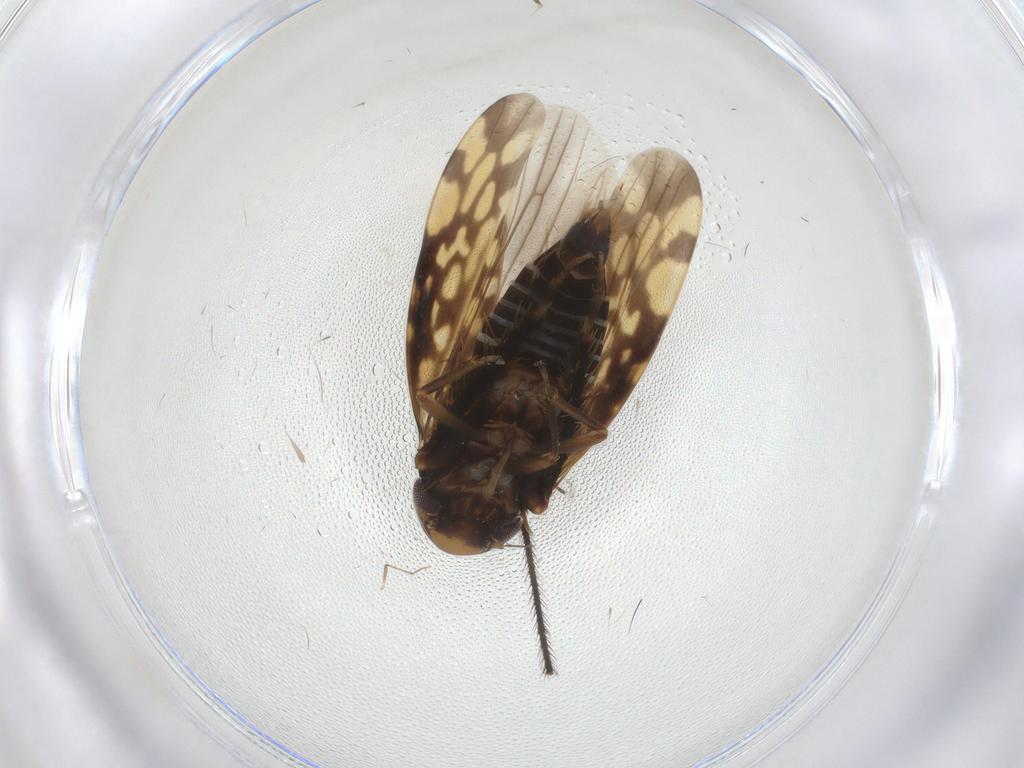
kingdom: Animalia
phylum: Arthropoda
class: Insecta
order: Hemiptera
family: Cicadellidae
